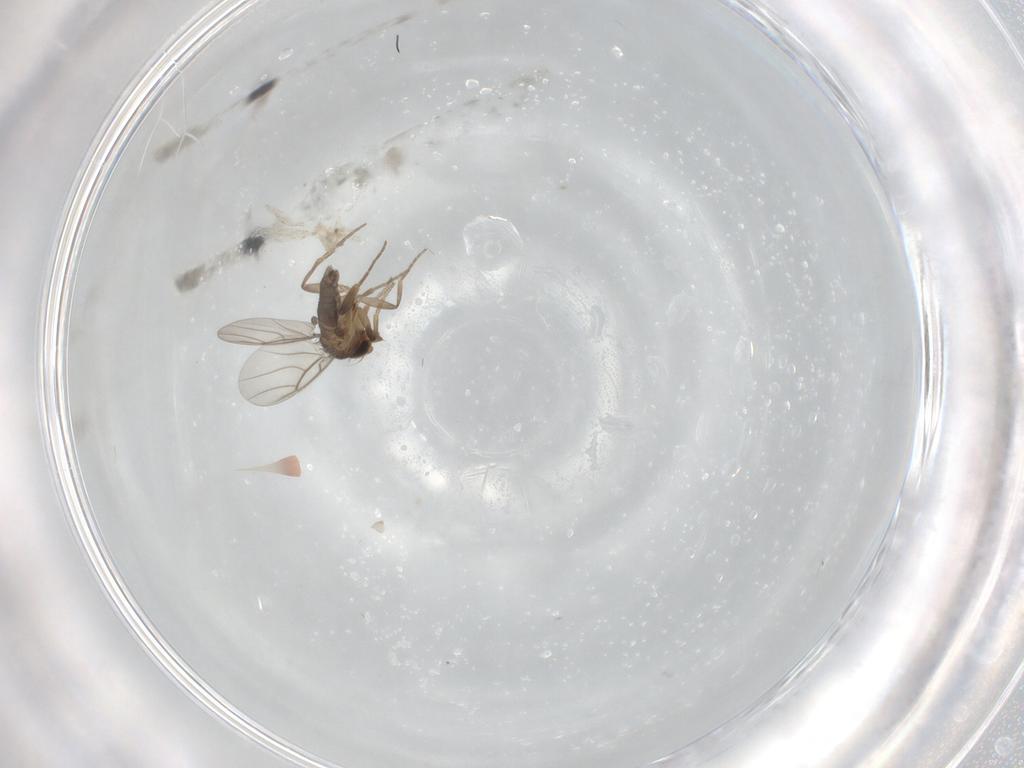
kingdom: Animalia
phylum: Arthropoda
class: Insecta
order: Diptera
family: Phoridae
